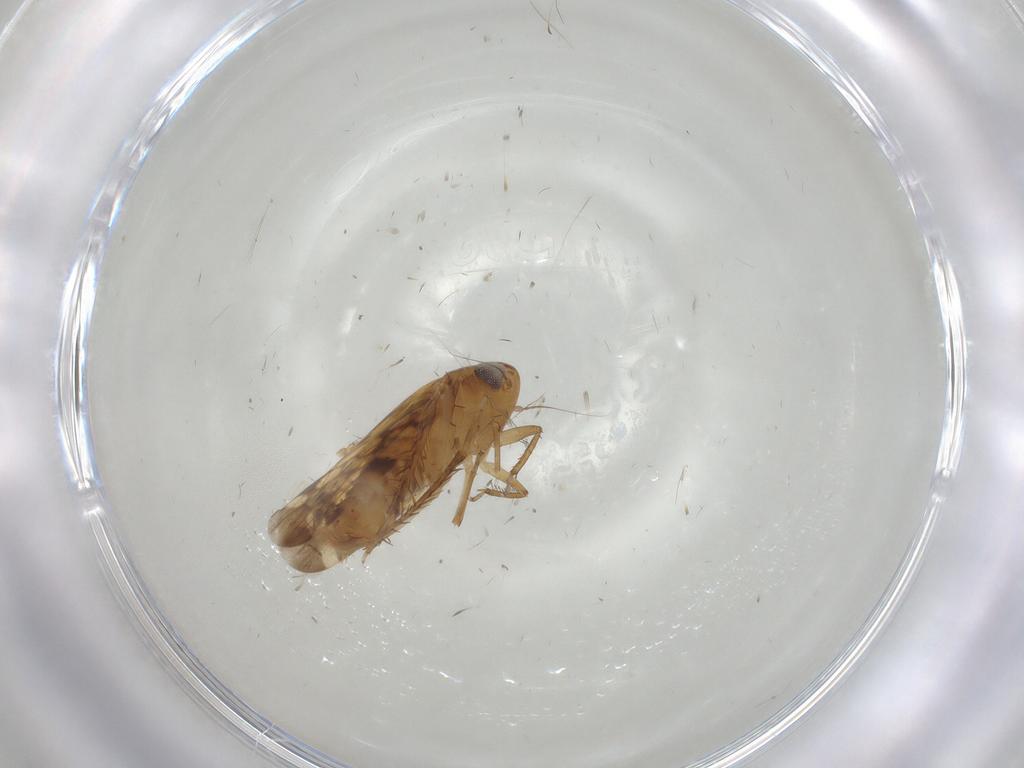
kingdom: Animalia
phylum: Arthropoda
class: Insecta
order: Hemiptera
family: Cicadellidae
